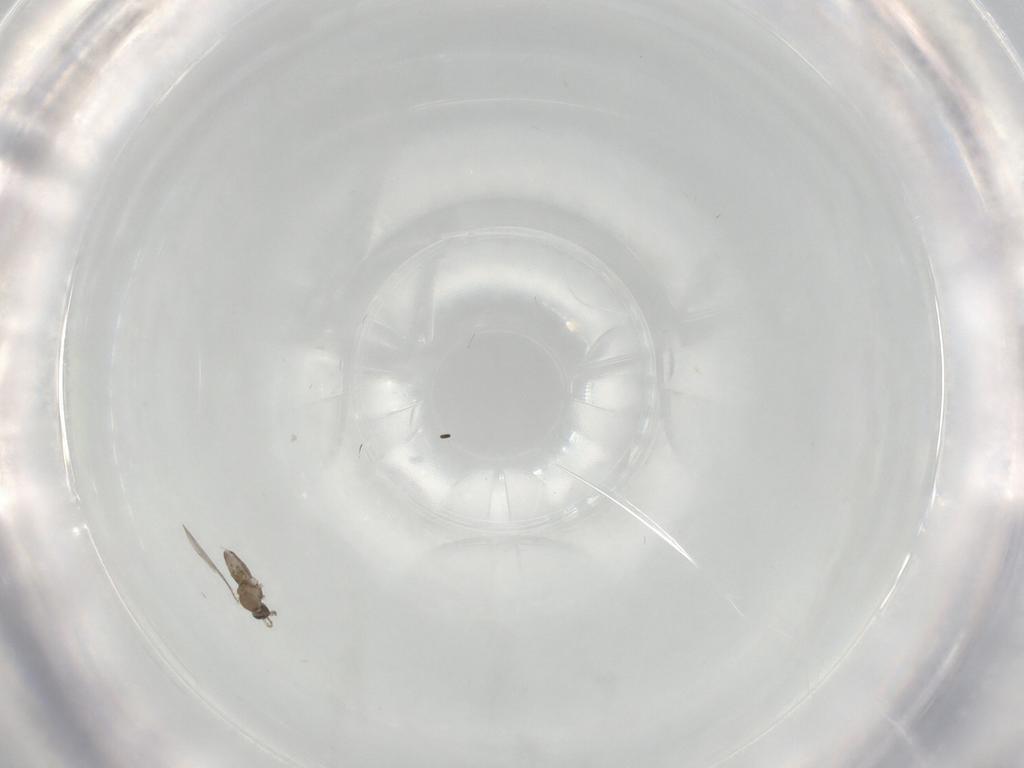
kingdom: Animalia
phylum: Arthropoda
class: Insecta
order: Diptera
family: Cecidomyiidae
